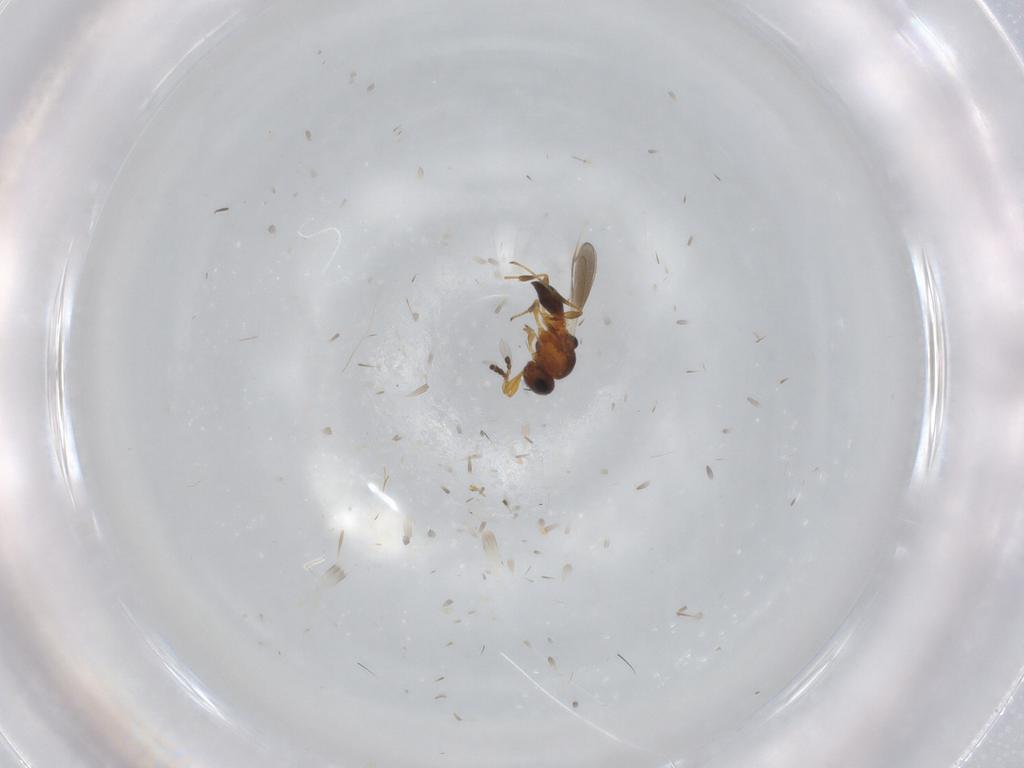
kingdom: Animalia
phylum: Arthropoda
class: Insecta
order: Hymenoptera
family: Platygastridae
